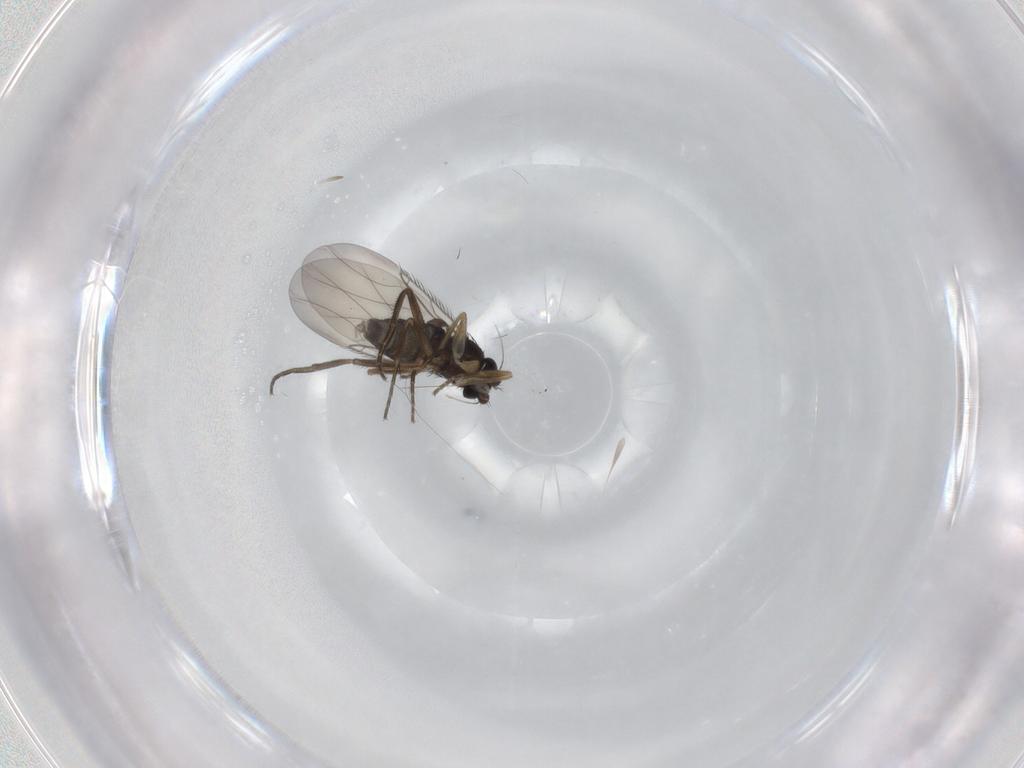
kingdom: Animalia
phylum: Arthropoda
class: Insecta
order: Diptera
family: Phoridae
